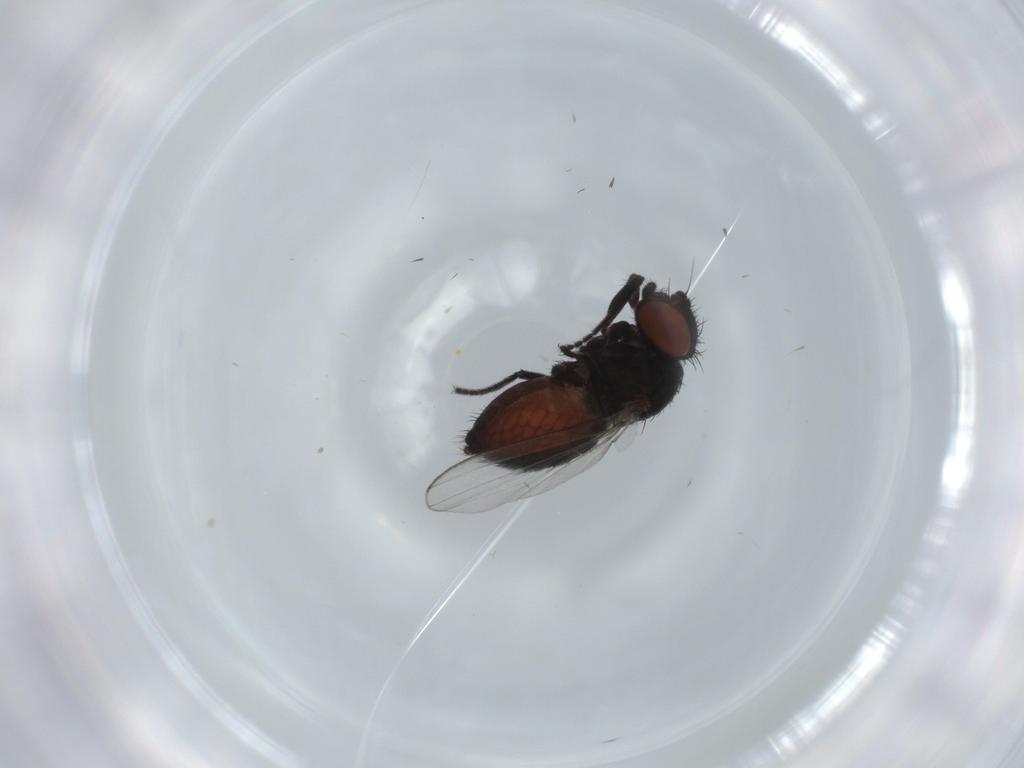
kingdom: Animalia
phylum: Arthropoda
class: Insecta
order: Diptera
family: Milichiidae
